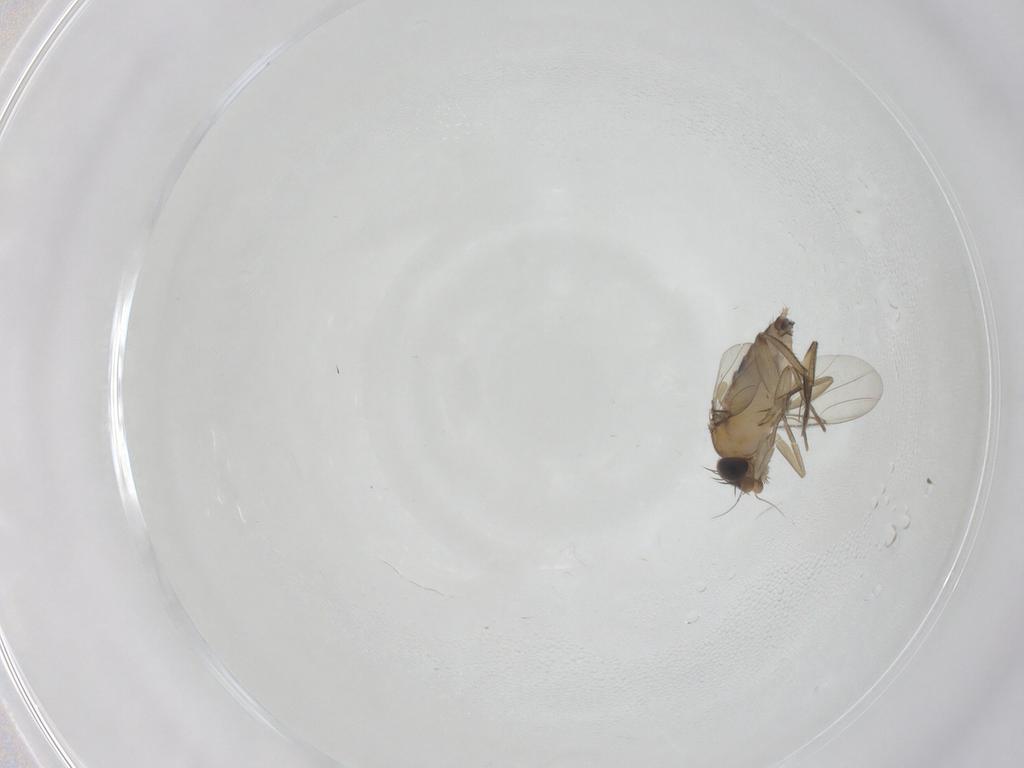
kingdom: Animalia
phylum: Arthropoda
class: Insecta
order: Diptera
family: Phoridae
